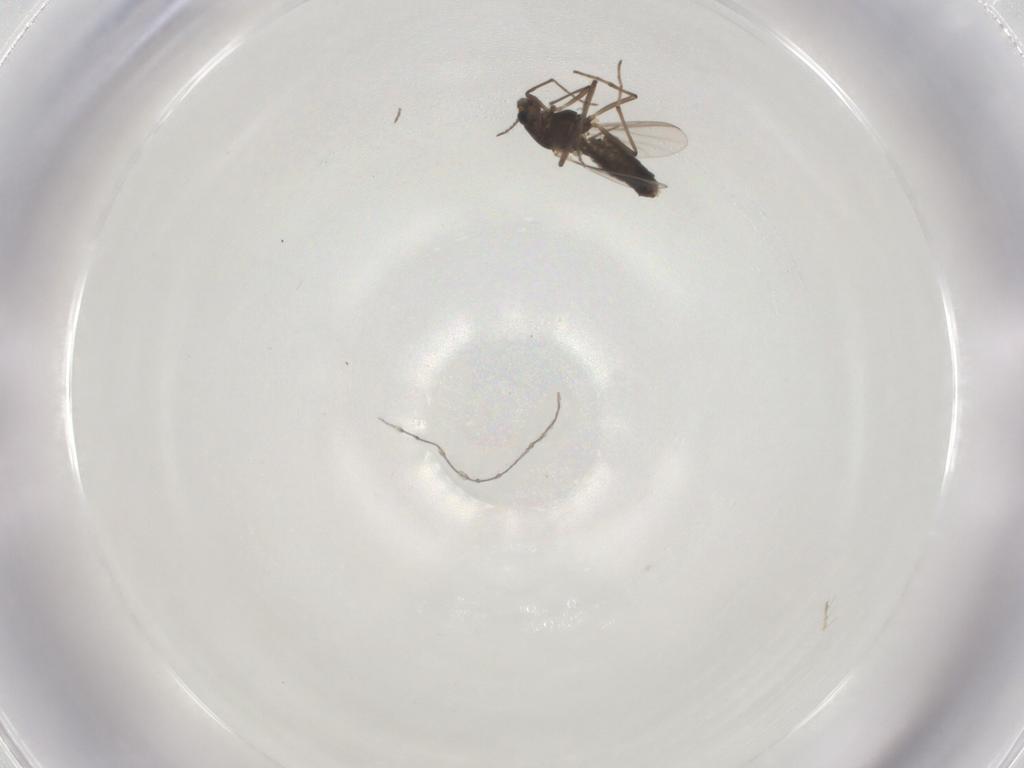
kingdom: Animalia
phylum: Arthropoda
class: Insecta
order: Diptera
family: Chironomidae
